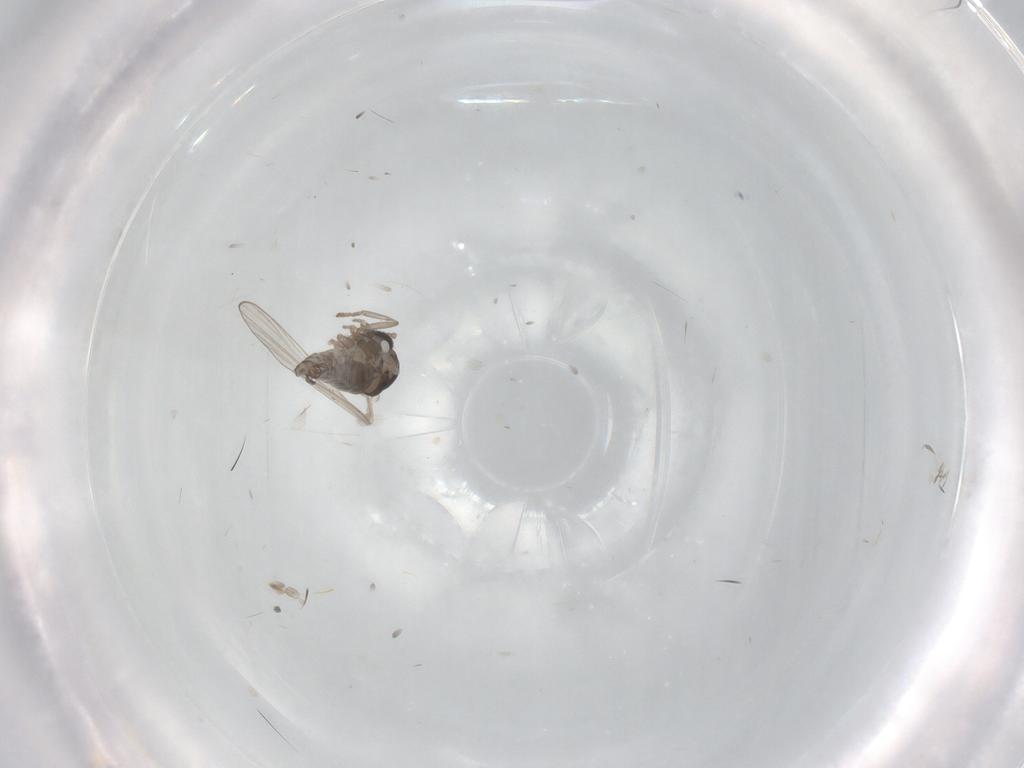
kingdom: Animalia
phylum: Arthropoda
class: Insecta
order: Diptera
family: Psychodidae
